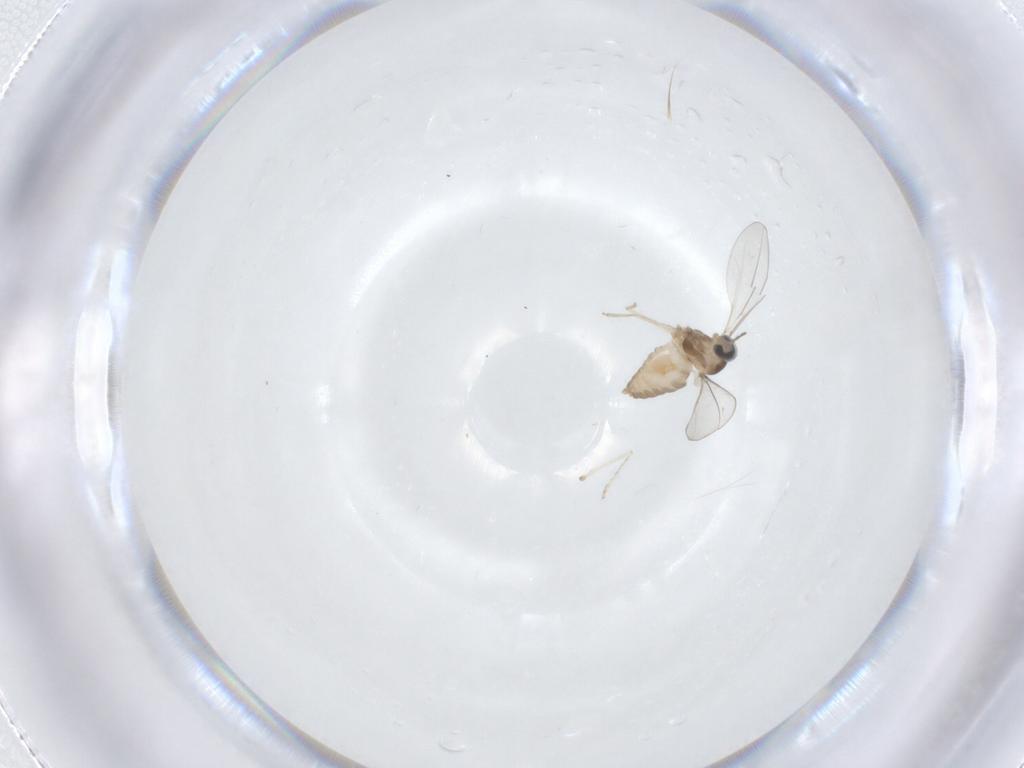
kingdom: Animalia
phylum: Arthropoda
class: Insecta
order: Diptera
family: Cecidomyiidae
